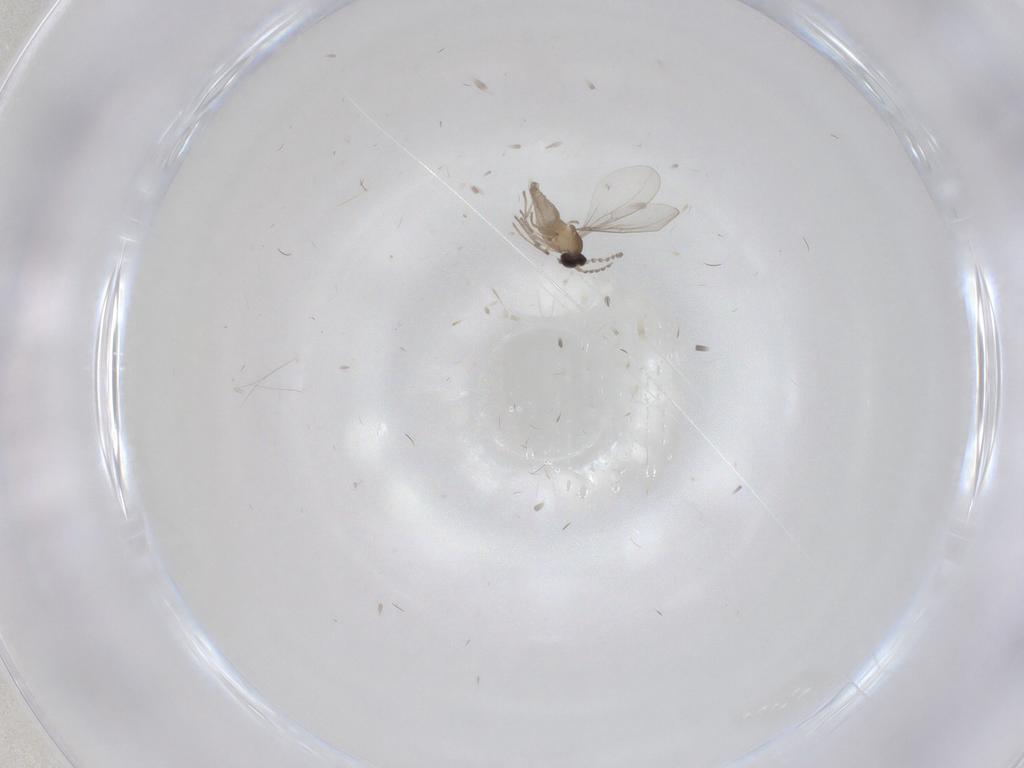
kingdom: Animalia
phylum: Arthropoda
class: Insecta
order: Diptera
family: Cecidomyiidae
